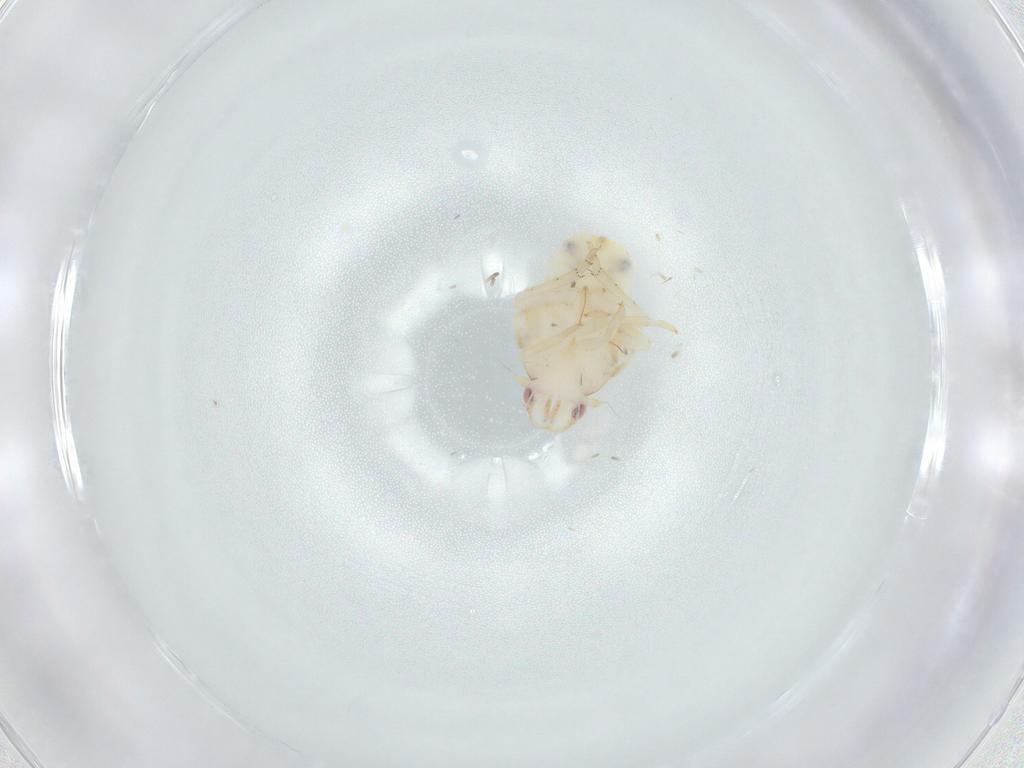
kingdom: Animalia
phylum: Arthropoda
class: Insecta
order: Hemiptera
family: Flatidae
